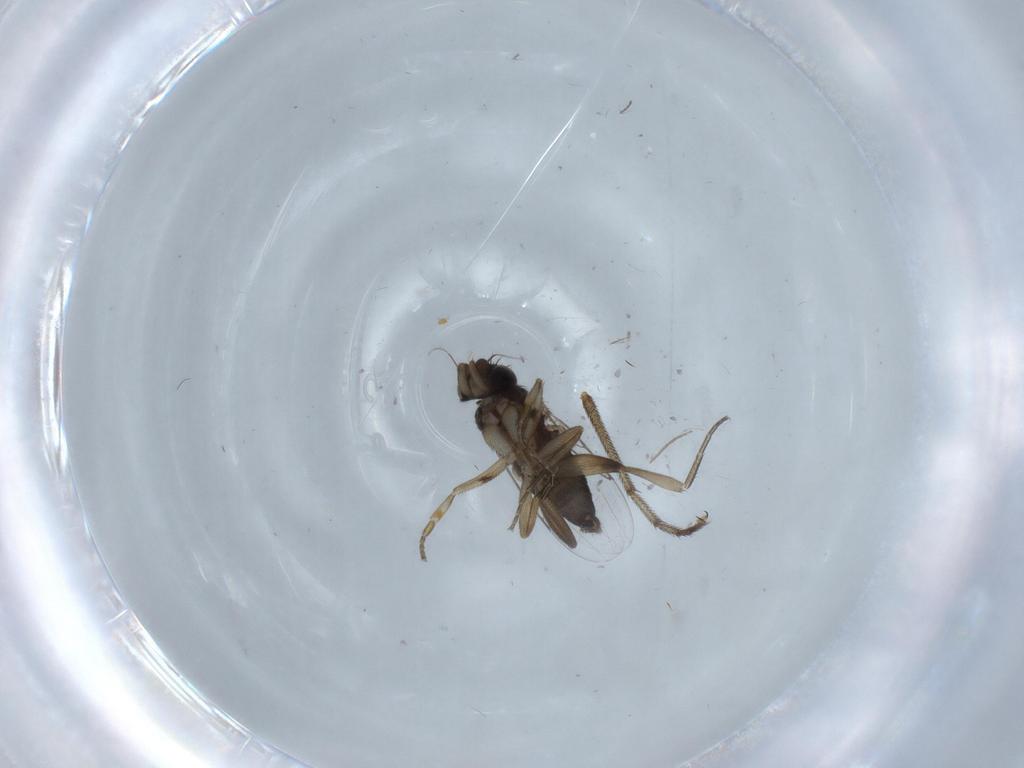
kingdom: Animalia
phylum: Arthropoda
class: Insecta
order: Diptera
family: Phoridae
